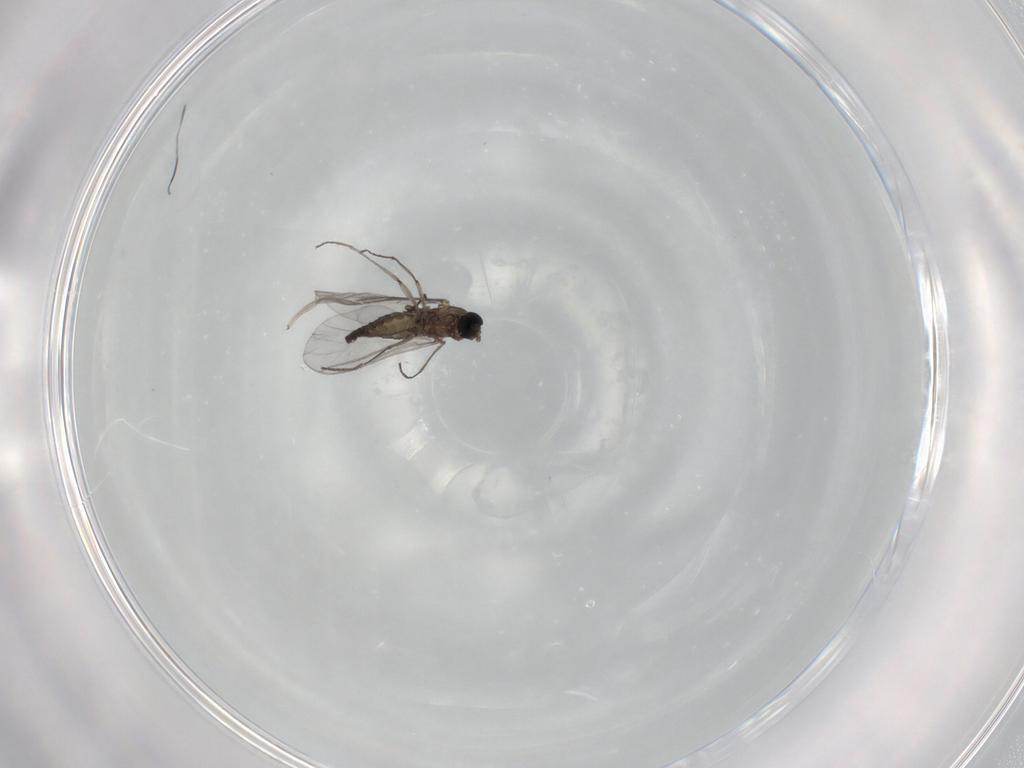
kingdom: Animalia
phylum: Arthropoda
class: Insecta
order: Diptera
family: Sciaridae
